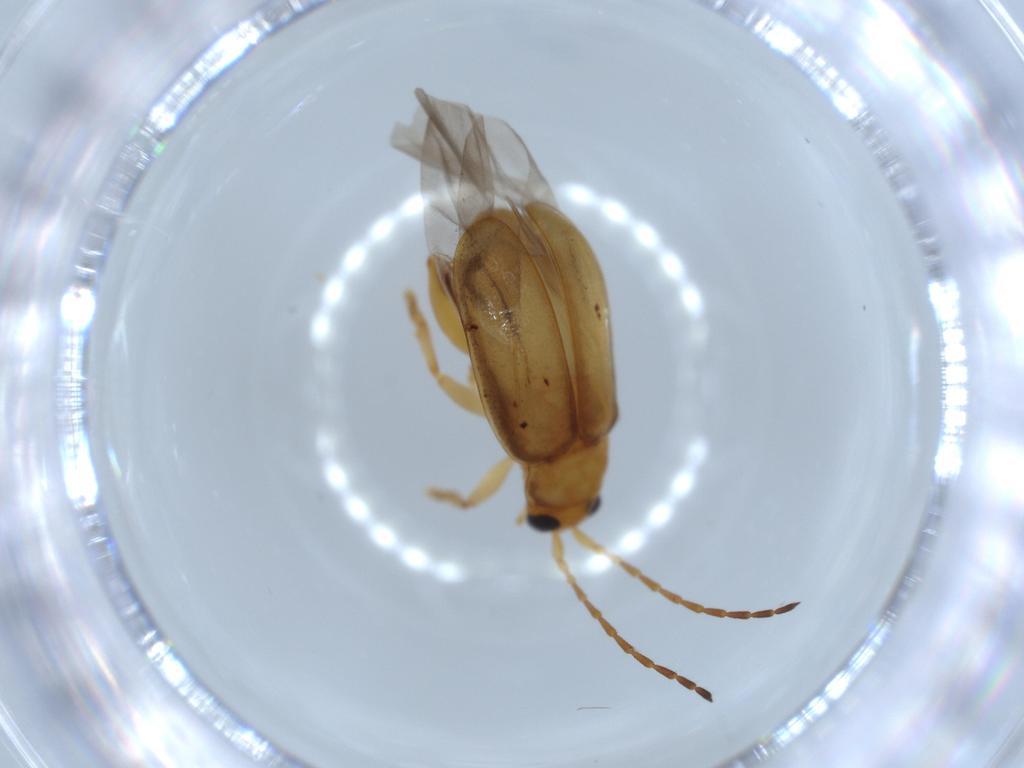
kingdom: Animalia
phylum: Arthropoda
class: Insecta
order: Coleoptera
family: Chrysomelidae
